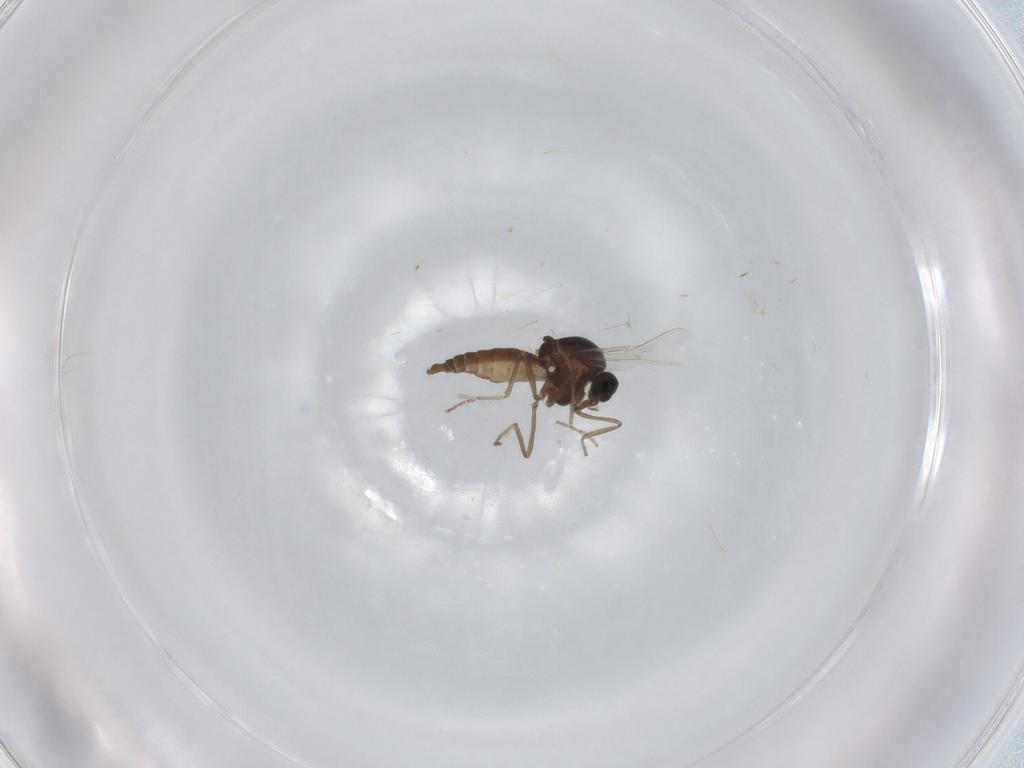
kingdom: Animalia
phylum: Arthropoda
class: Insecta
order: Diptera
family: Ceratopogonidae
